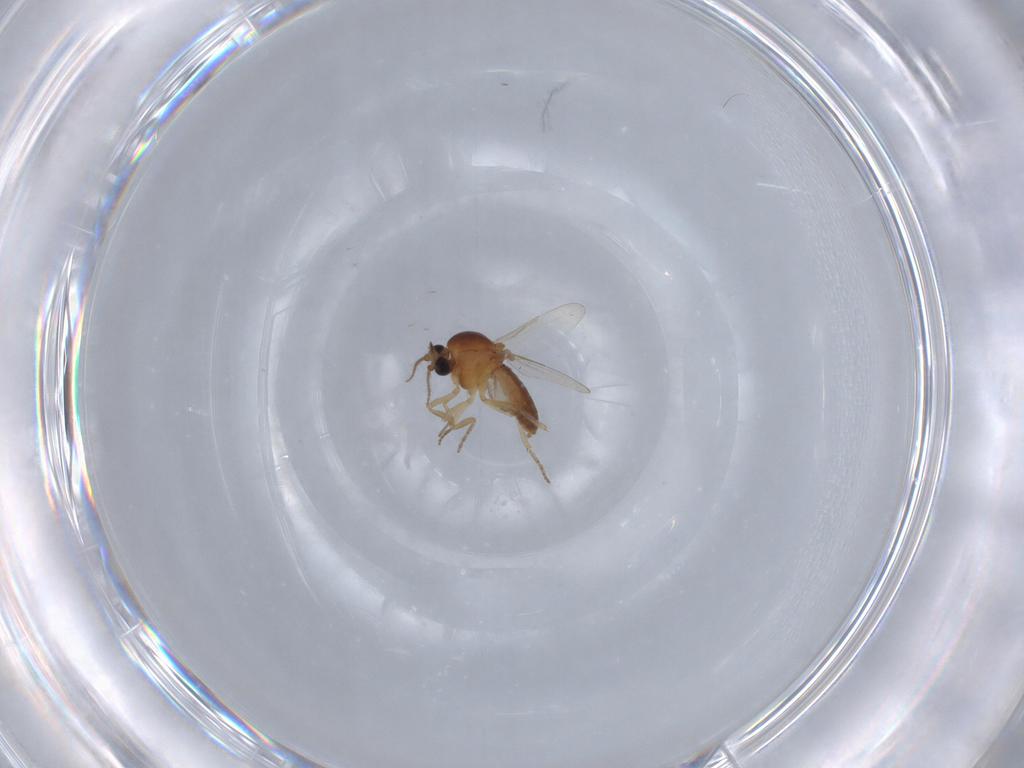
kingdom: Animalia
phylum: Arthropoda
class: Insecta
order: Diptera
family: Ceratopogonidae
